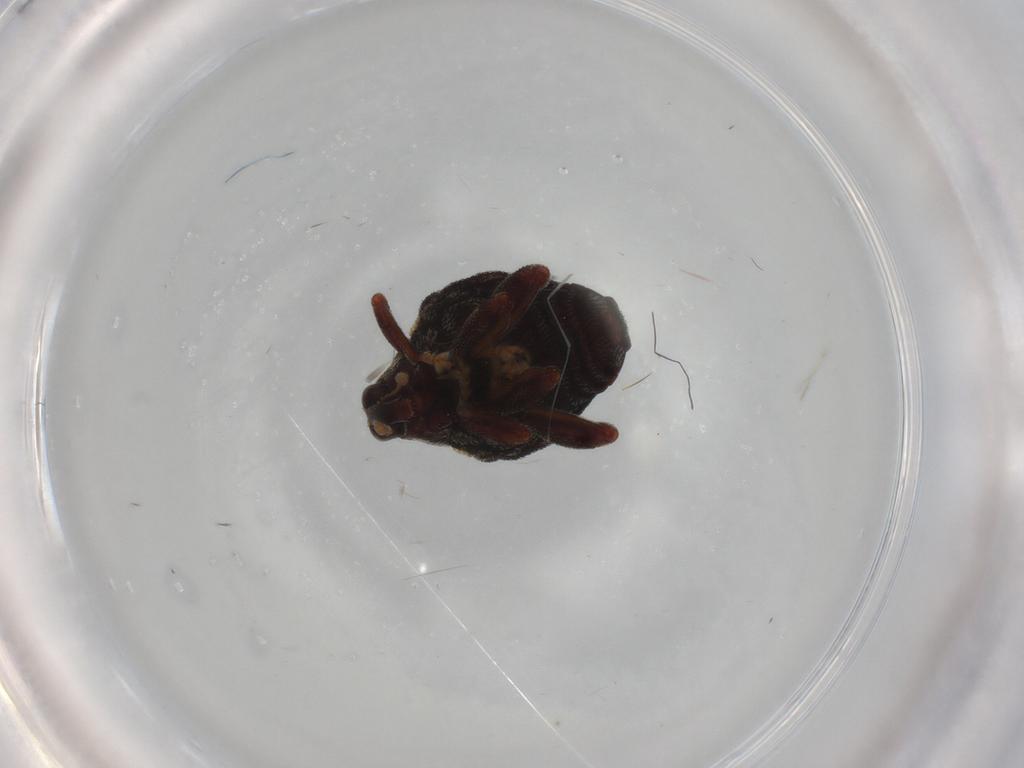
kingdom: Animalia
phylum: Arthropoda
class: Insecta
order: Coleoptera
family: Curculionidae
